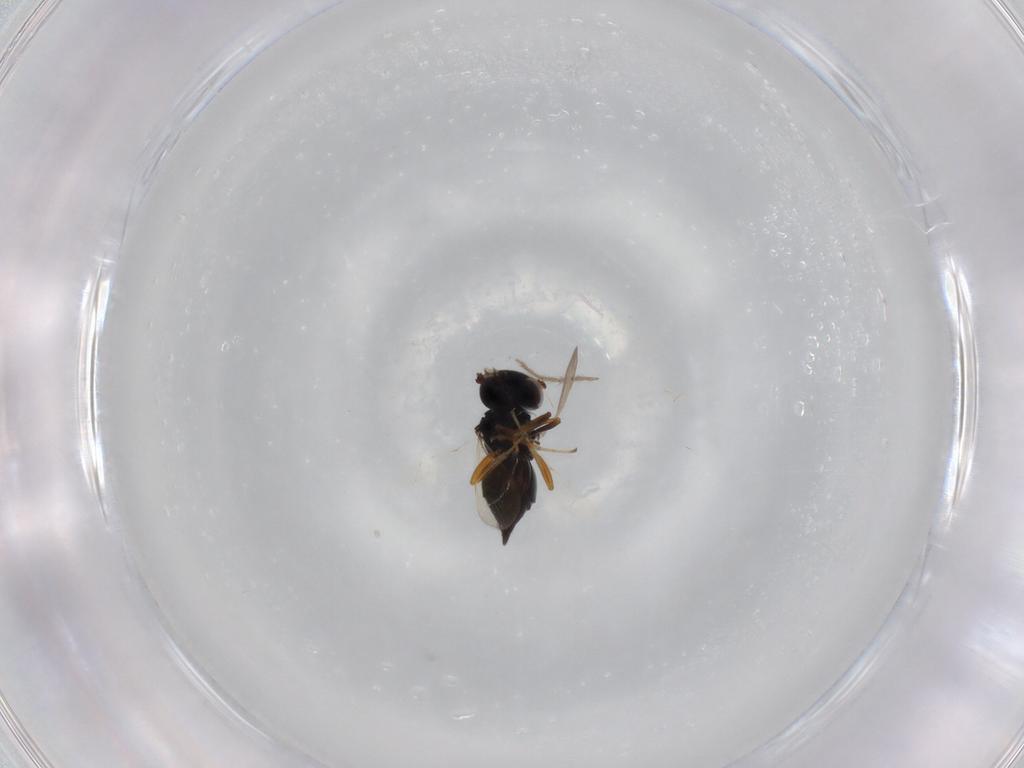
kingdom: Animalia
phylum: Arthropoda
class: Insecta
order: Hymenoptera
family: Pteromalidae
